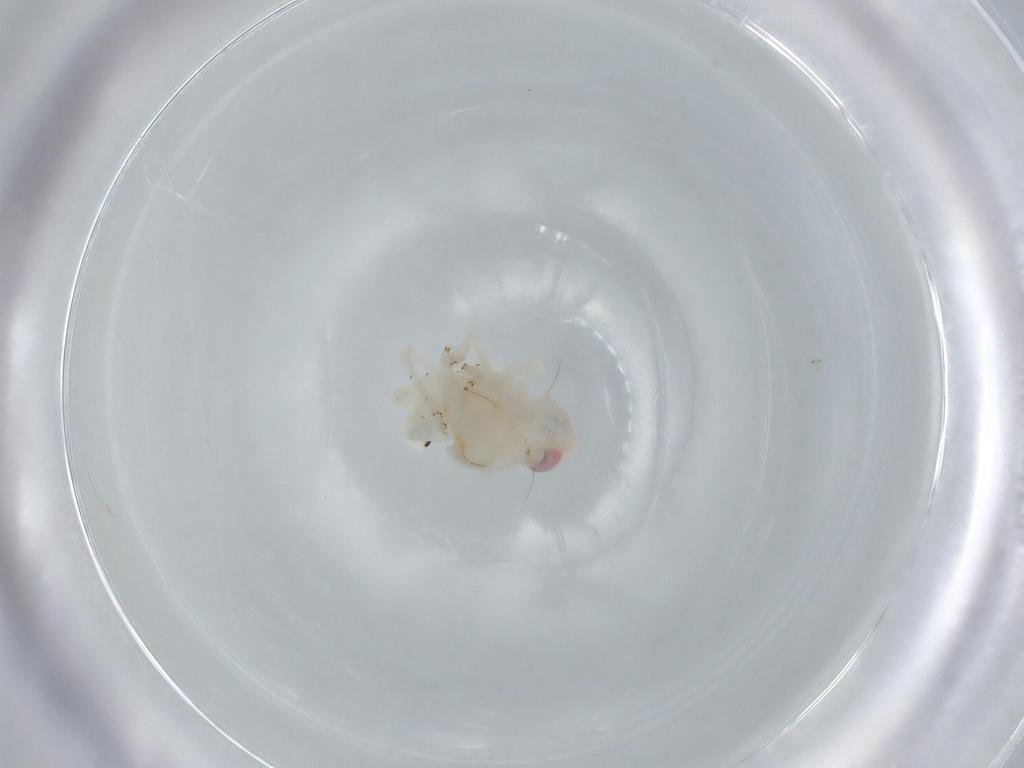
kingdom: Animalia
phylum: Arthropoda
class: Insecta
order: Hemiptera
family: Nogodinidae
